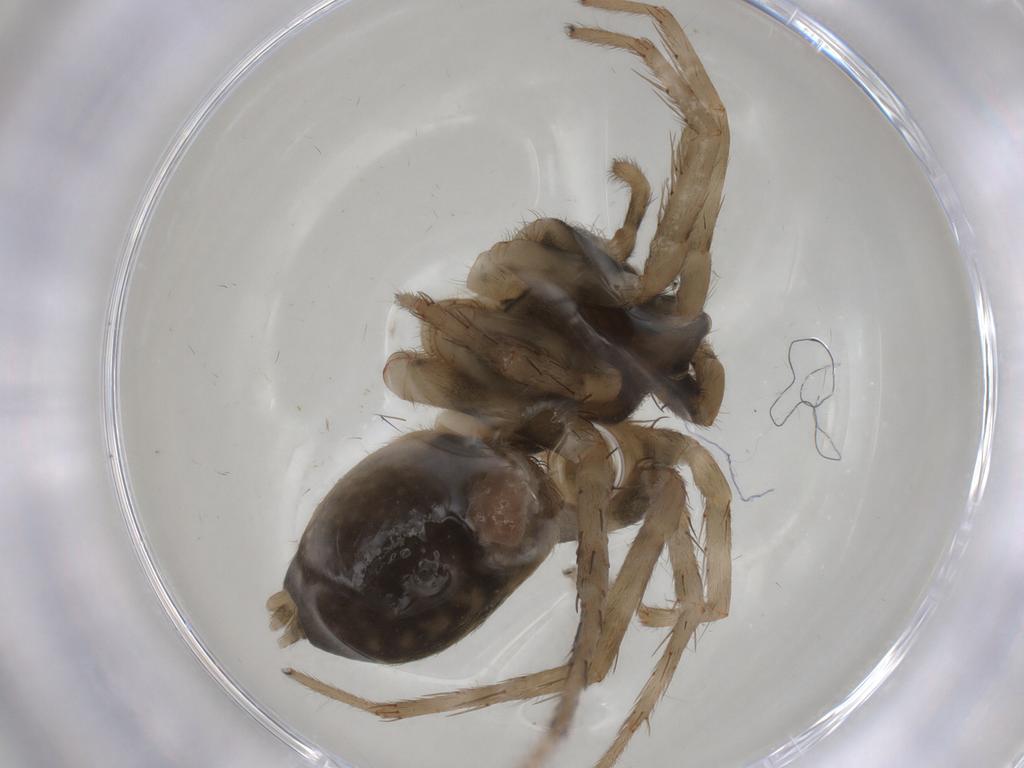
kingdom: Animalia
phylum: Arthropoda
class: Arachnida
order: Araneae
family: Lycosidae
